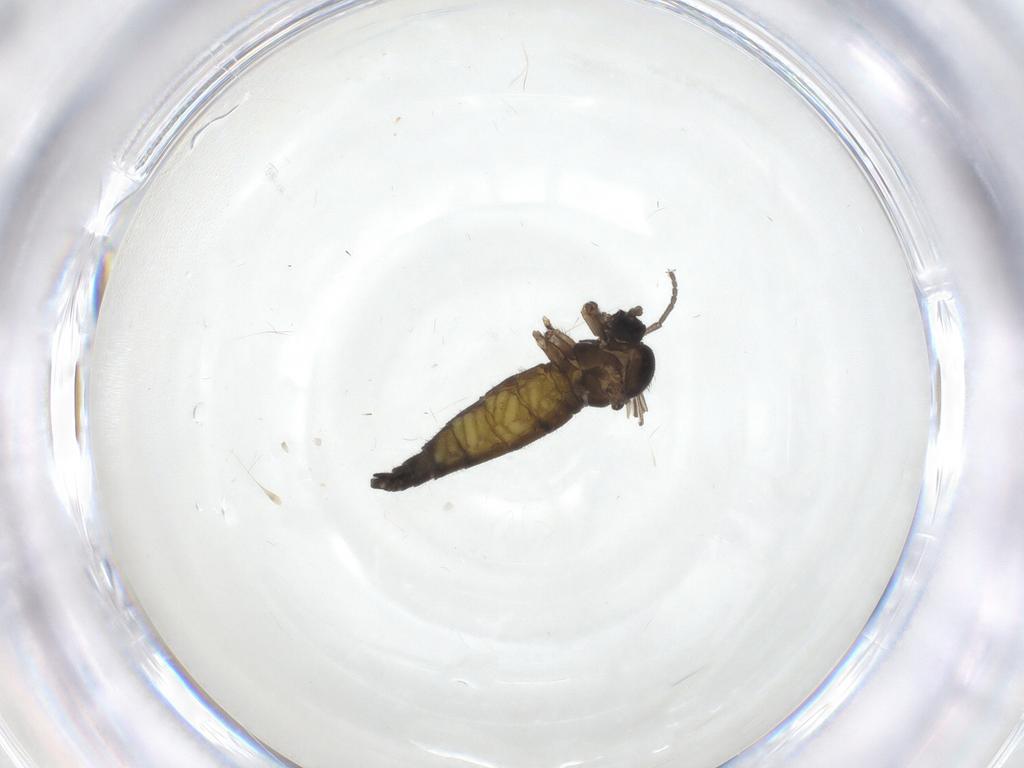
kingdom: Animalia
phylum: Arthropoda
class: Insecta
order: Diptera
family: Sciaridae
